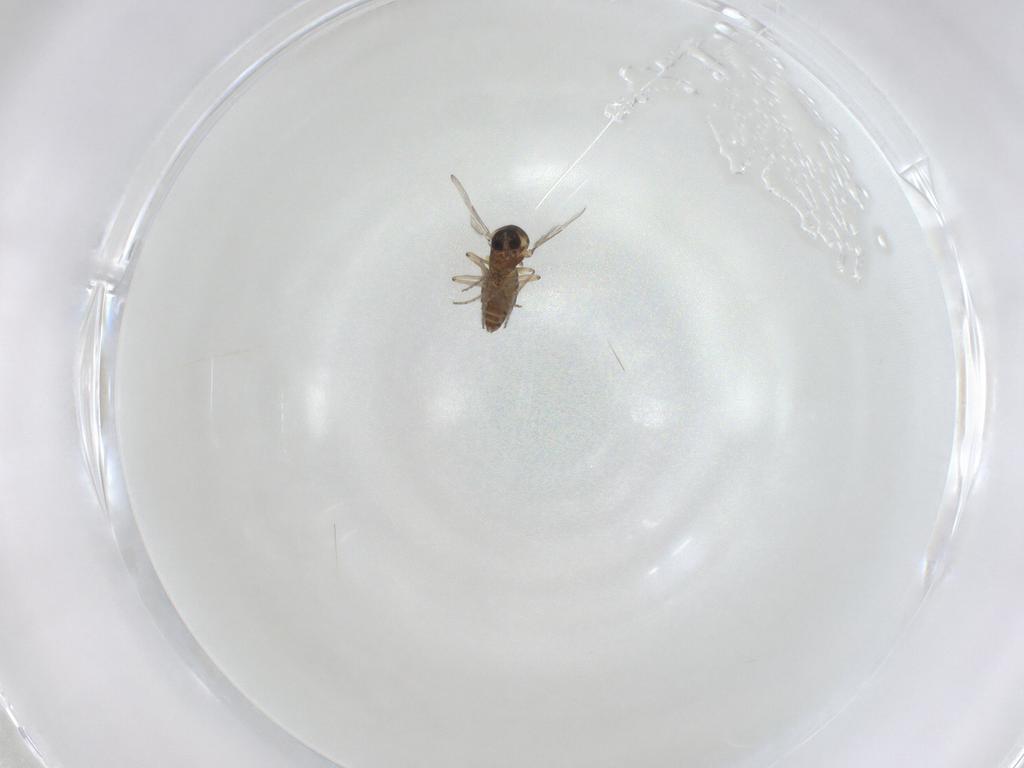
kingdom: Animalia
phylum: Arthropoda
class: Insecta
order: Diptera
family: Ceratopogonidae
